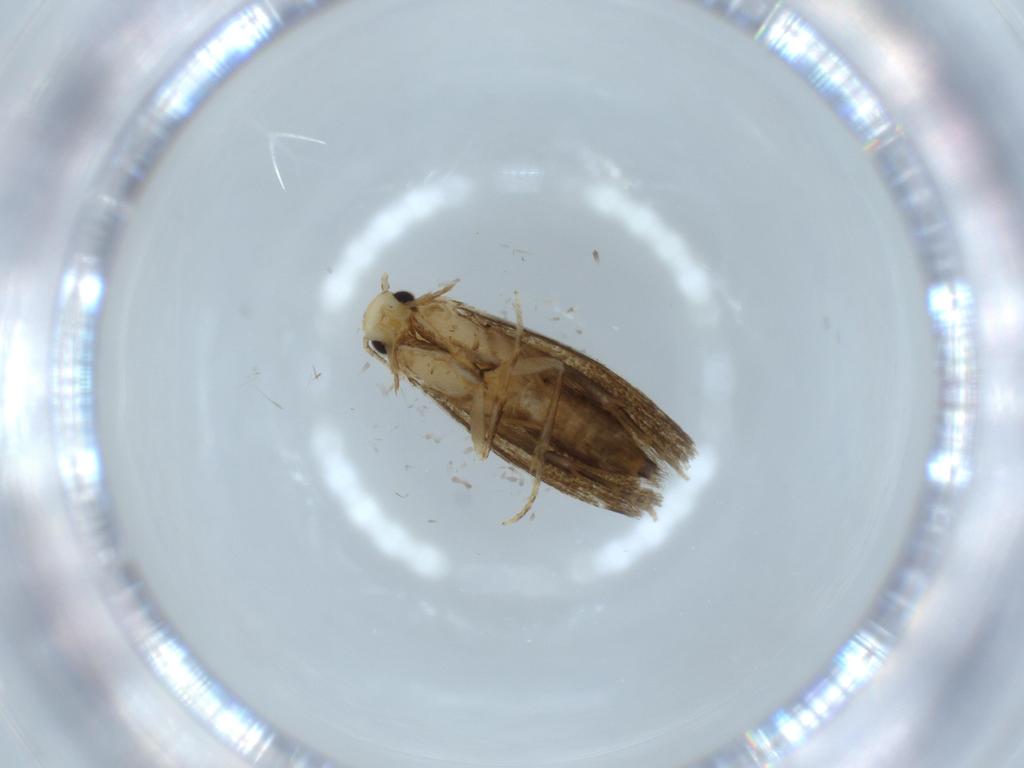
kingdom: Animalia
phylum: Arthropoda
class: Insecta
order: Lepidoptera
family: Tineidae
